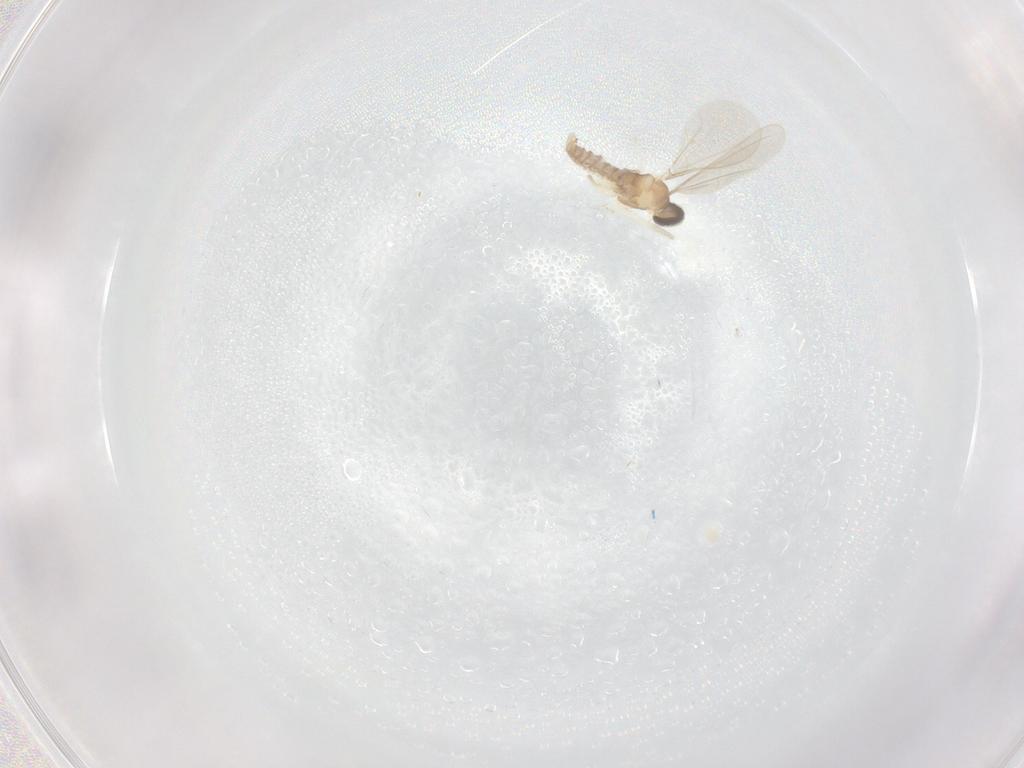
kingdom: Animalia
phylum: Arthropoda
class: Insecta
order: Diptera
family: Cecidomyiidae
